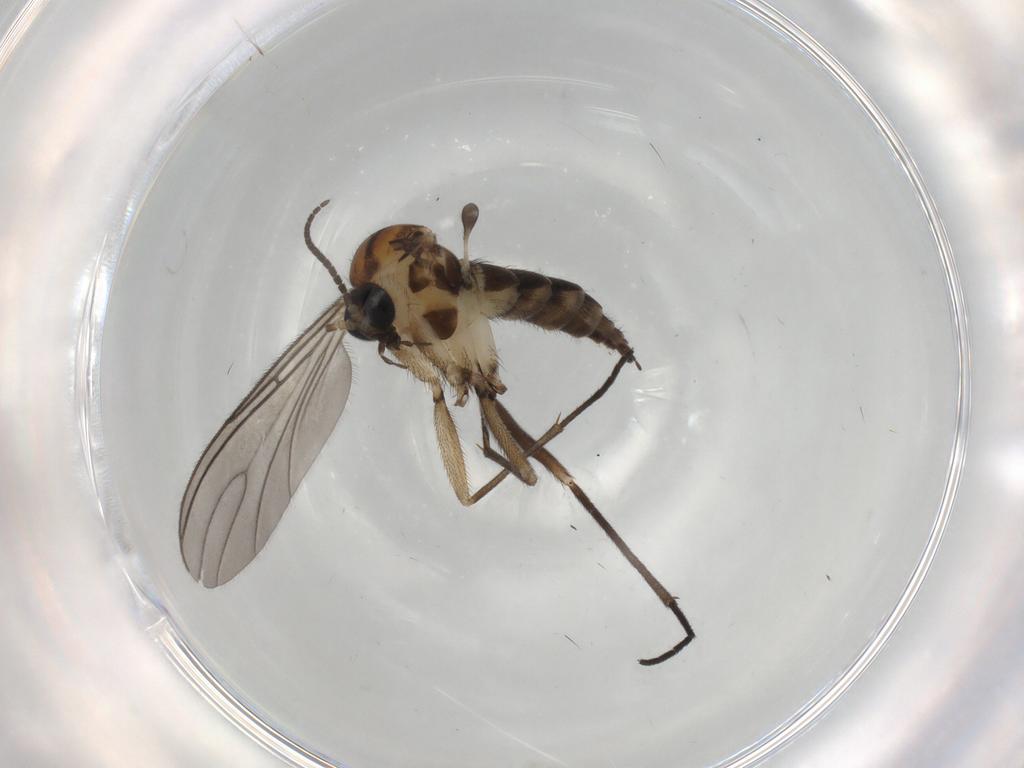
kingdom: Animalia
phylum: Arthropoda
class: Insecta
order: Diptera
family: Sciaridae
